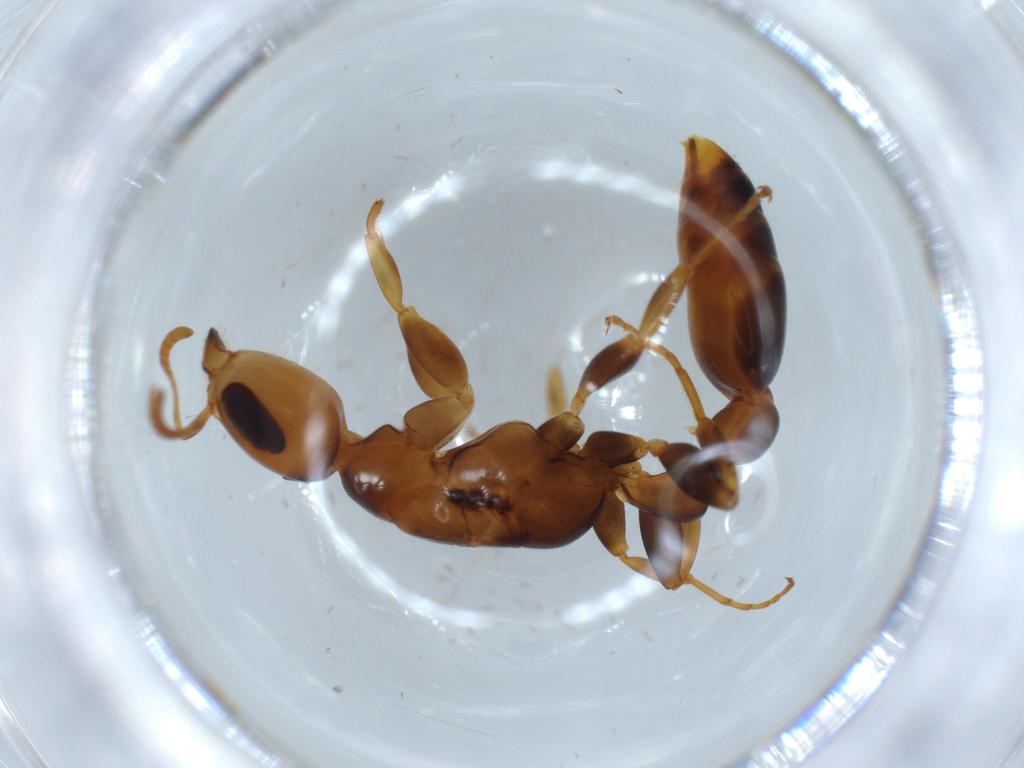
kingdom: Animalia
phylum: Arthropoda
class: Insecta
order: Hymenoptera
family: Formicidae
